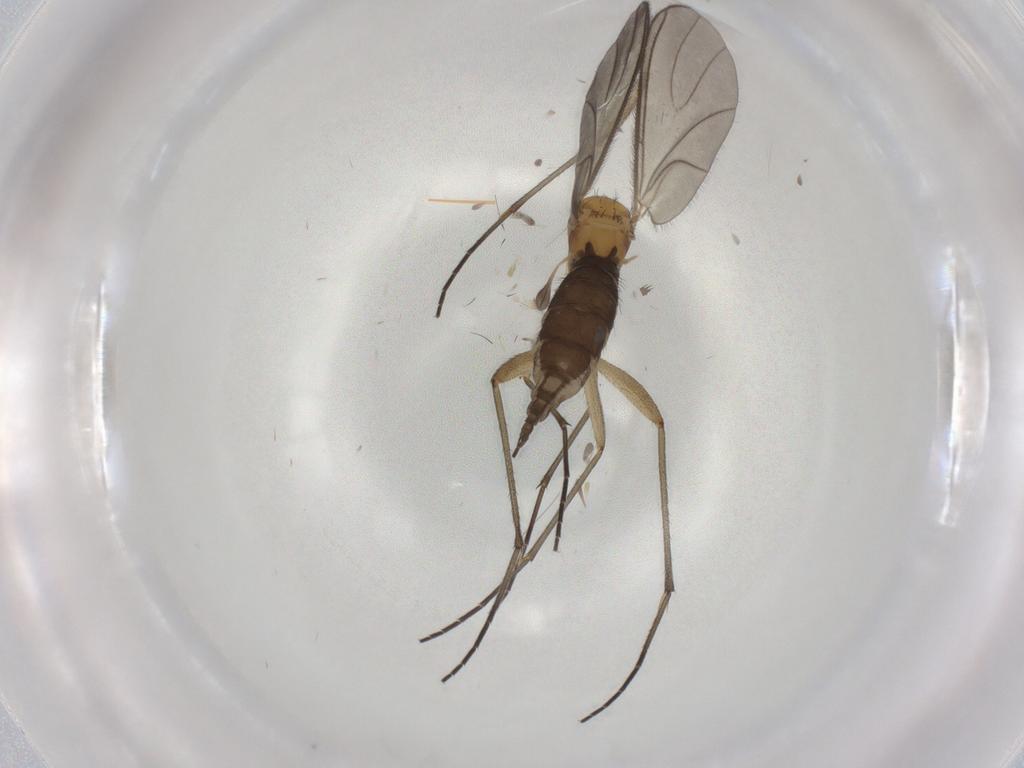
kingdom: Animalia
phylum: Arthropoda
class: Insecta
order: Diptera
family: Sciaridae
